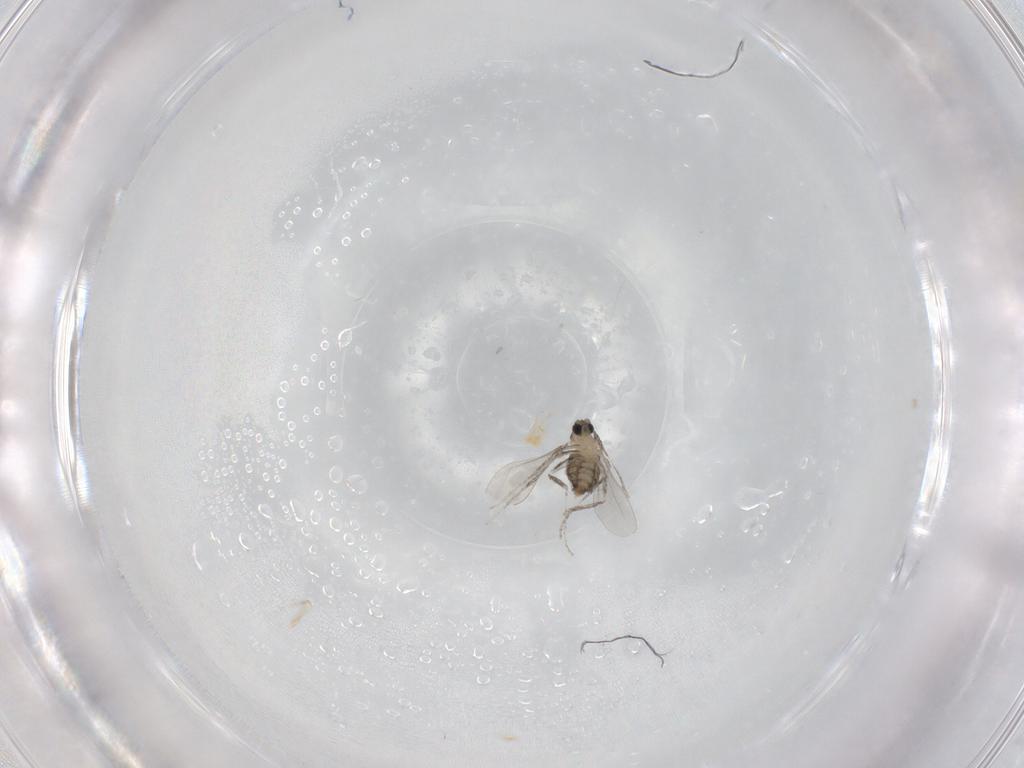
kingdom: Animalia
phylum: Arthropoda
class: Insecta
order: Diptera
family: Cecidomyiidae
